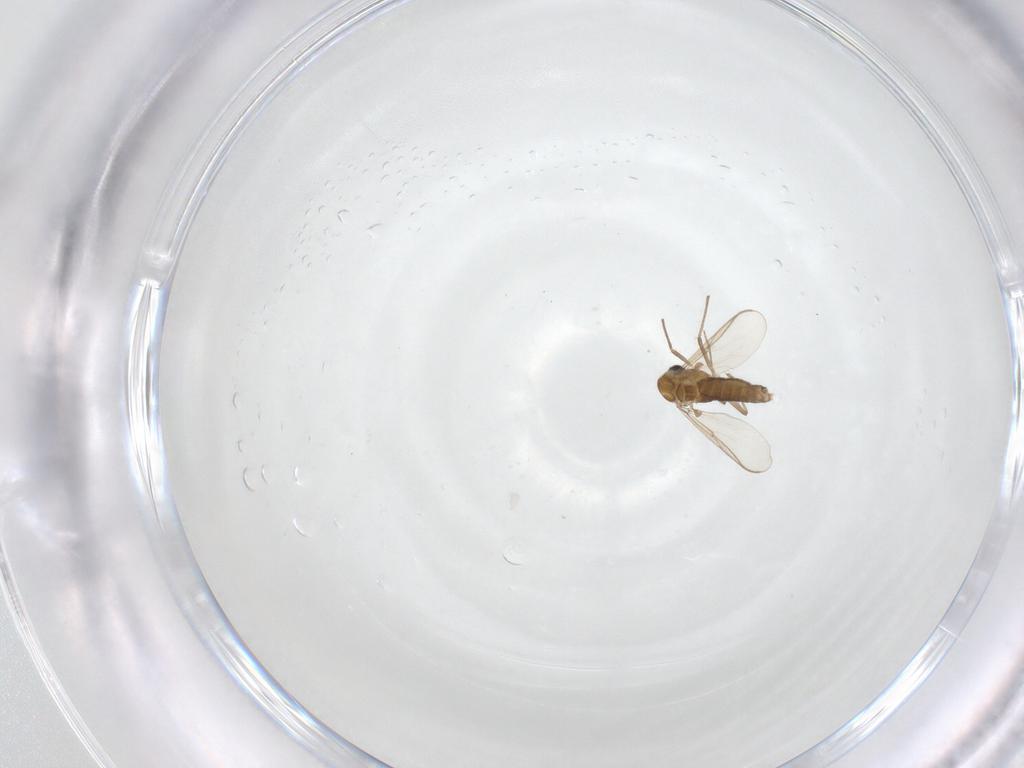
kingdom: Animalia
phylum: Arthropoda
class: Insecta
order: Diptera
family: Chironomidae
